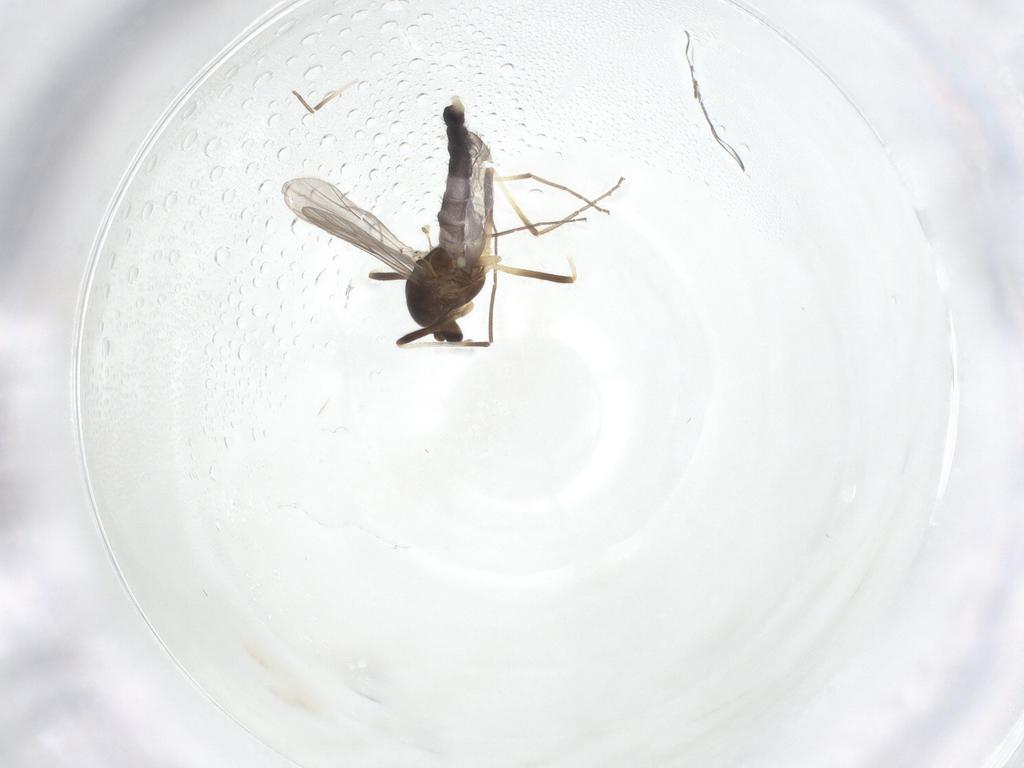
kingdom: Animalia
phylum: Arthropoda
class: Insecta
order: Diptera
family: Chironomidae
